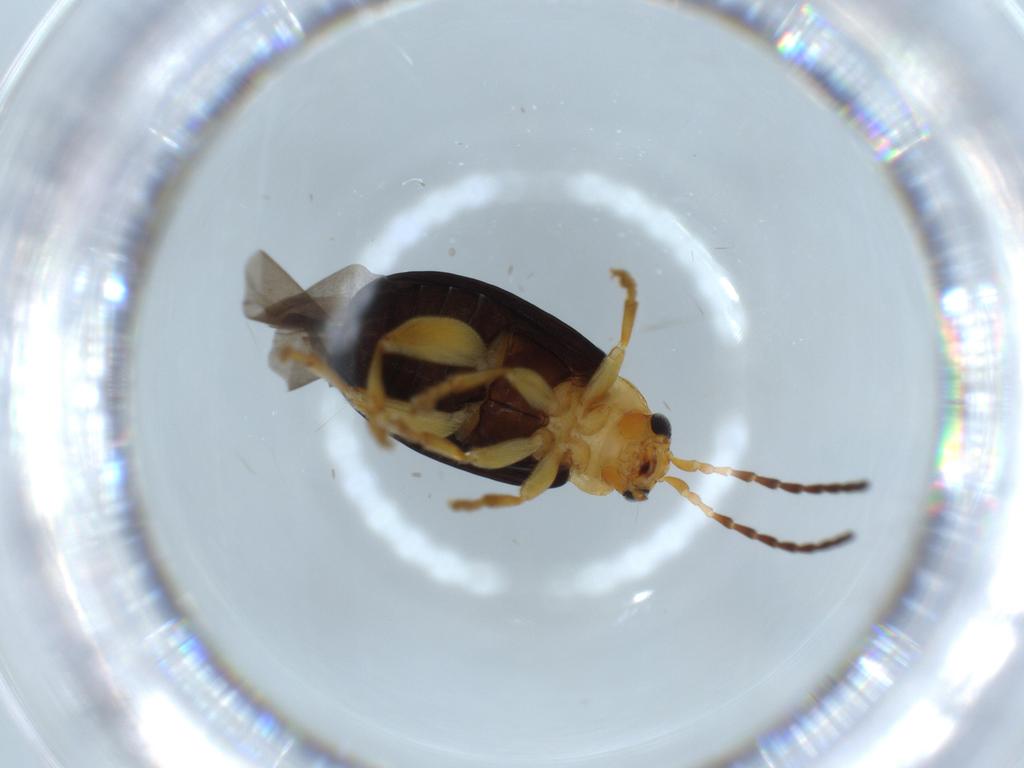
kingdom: Animalia
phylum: Arthropoda
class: Insecta
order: Coleoptera
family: Chrysomelidae
